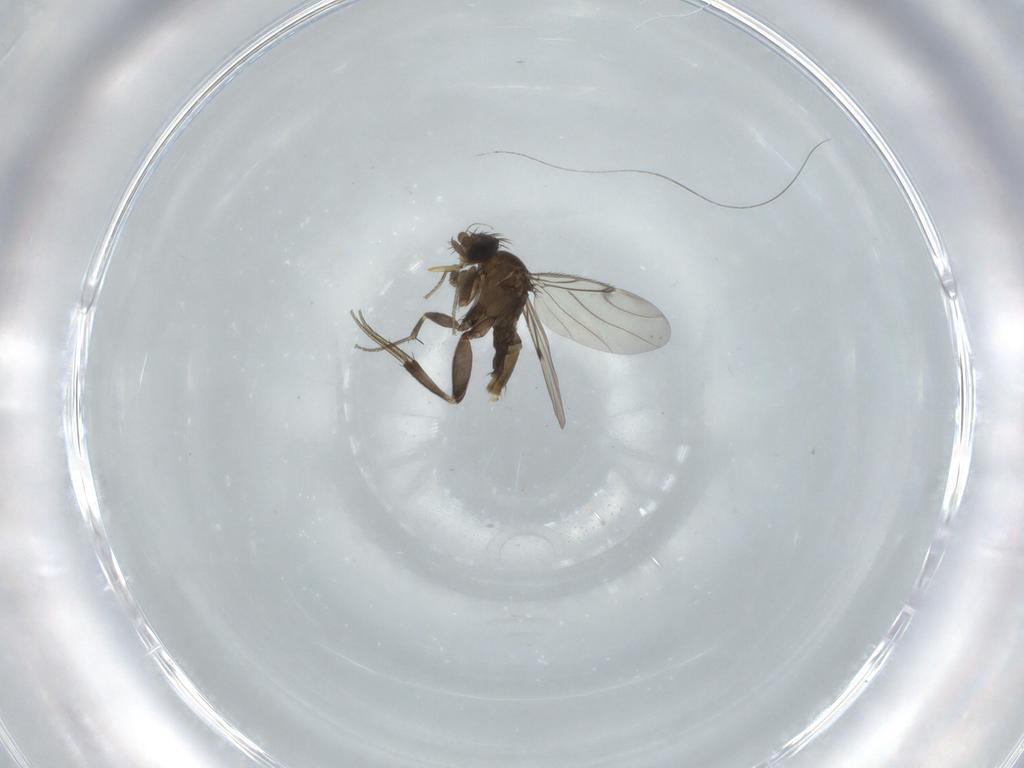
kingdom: Animalia
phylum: Arthropoda
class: Insecta
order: Diptera
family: Phoridae
